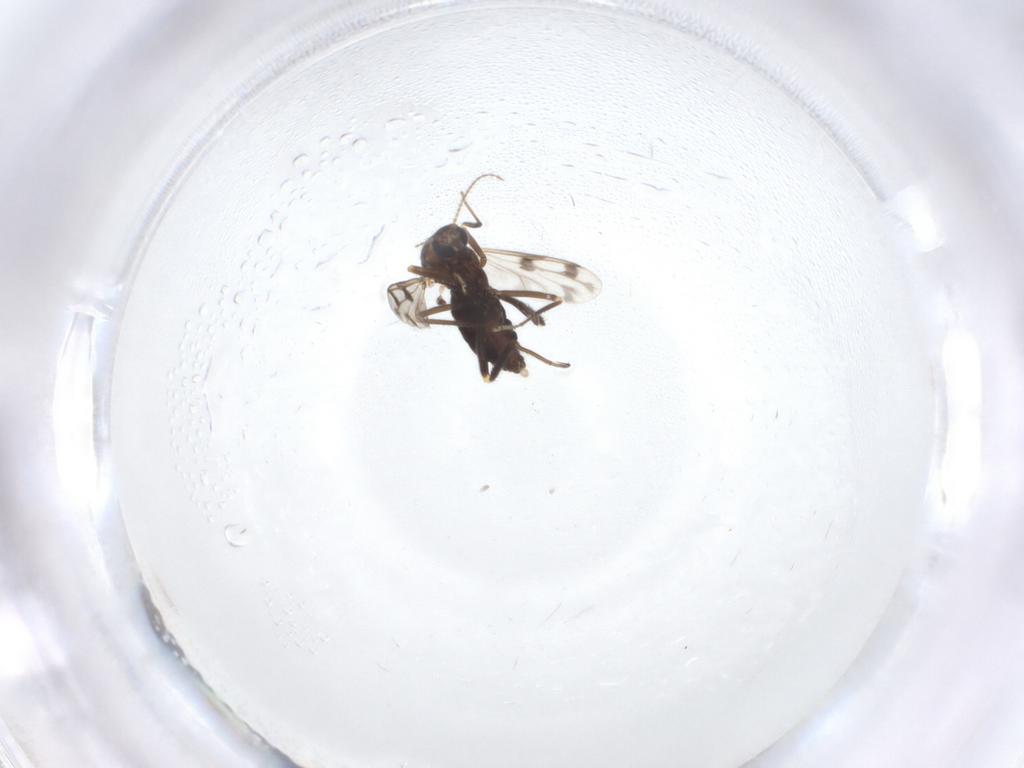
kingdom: Animalia
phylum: Arthropoda
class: Insecta
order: Diptera
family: Ceratopogonidae
